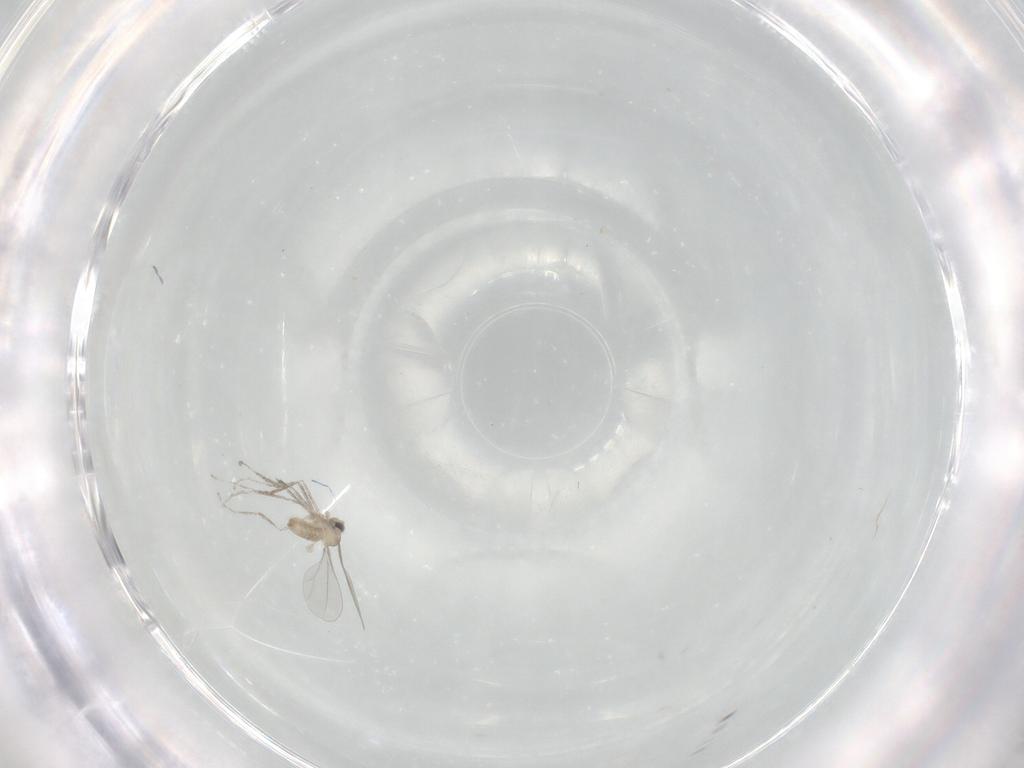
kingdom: Animalia
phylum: Arthropoda
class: Insecta
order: Diptera
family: Cecidomyiidae
